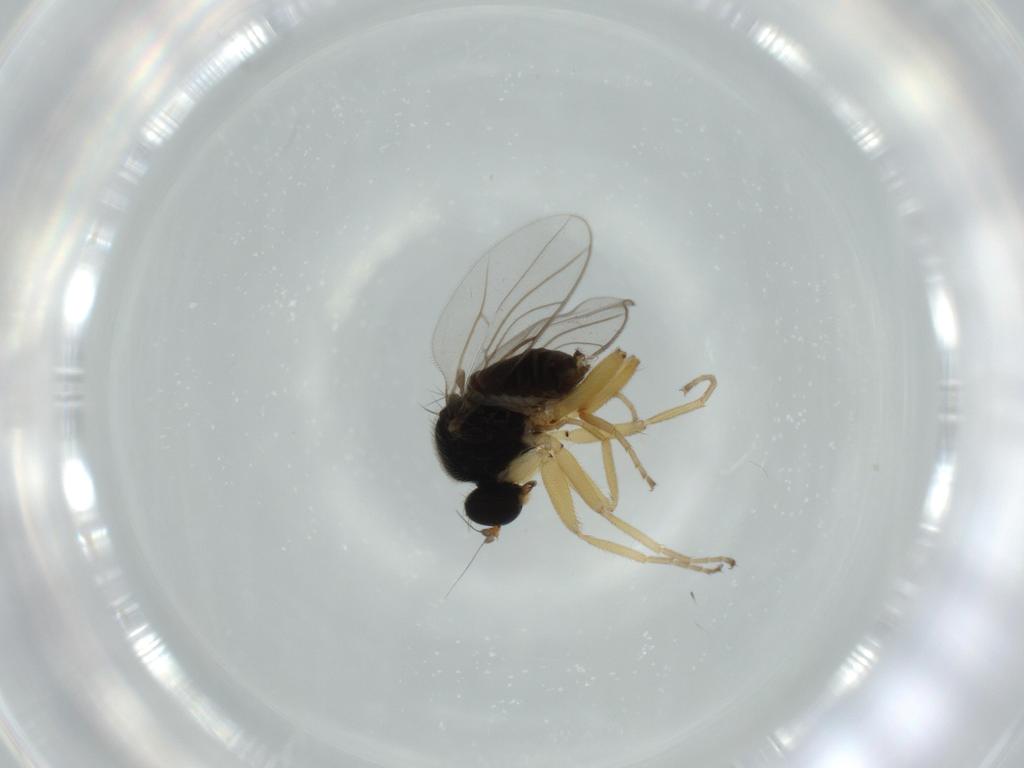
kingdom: Animalia
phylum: Arthropoda
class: Insecta
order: Diptera
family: Hybotidae
